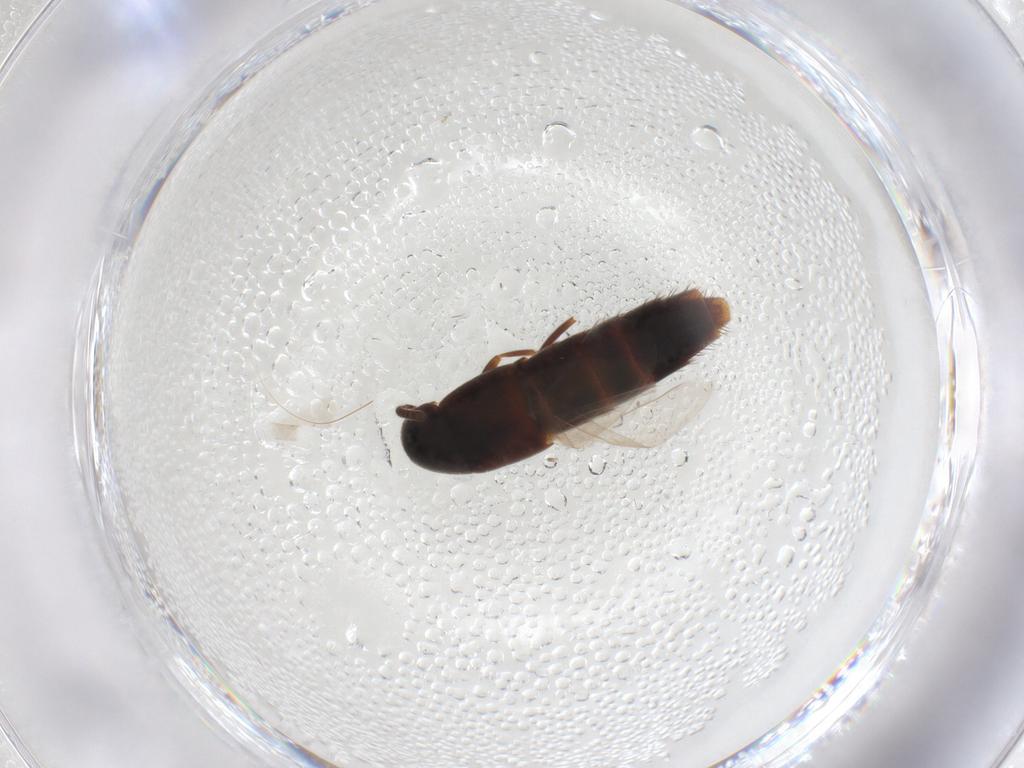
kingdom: Animalia
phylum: Arthropoda
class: Insecta
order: Coleoptera
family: Staphylinidae
